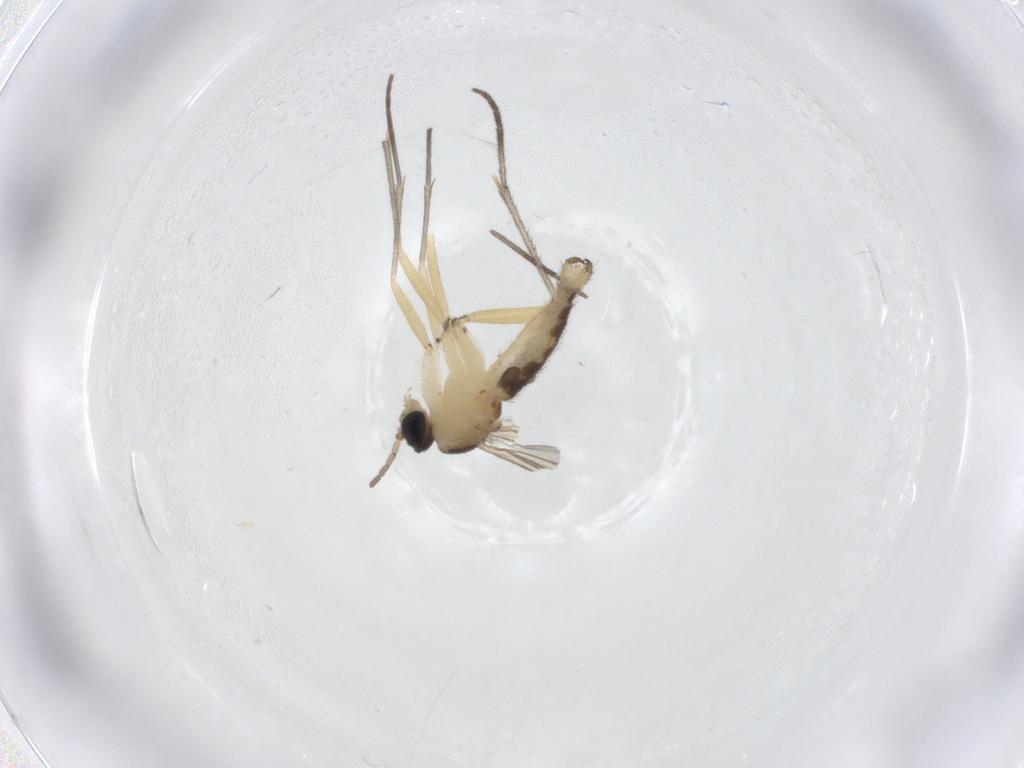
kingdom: Animalia
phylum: Arthropoda
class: Insecta
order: Diptera
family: Sciaridae
